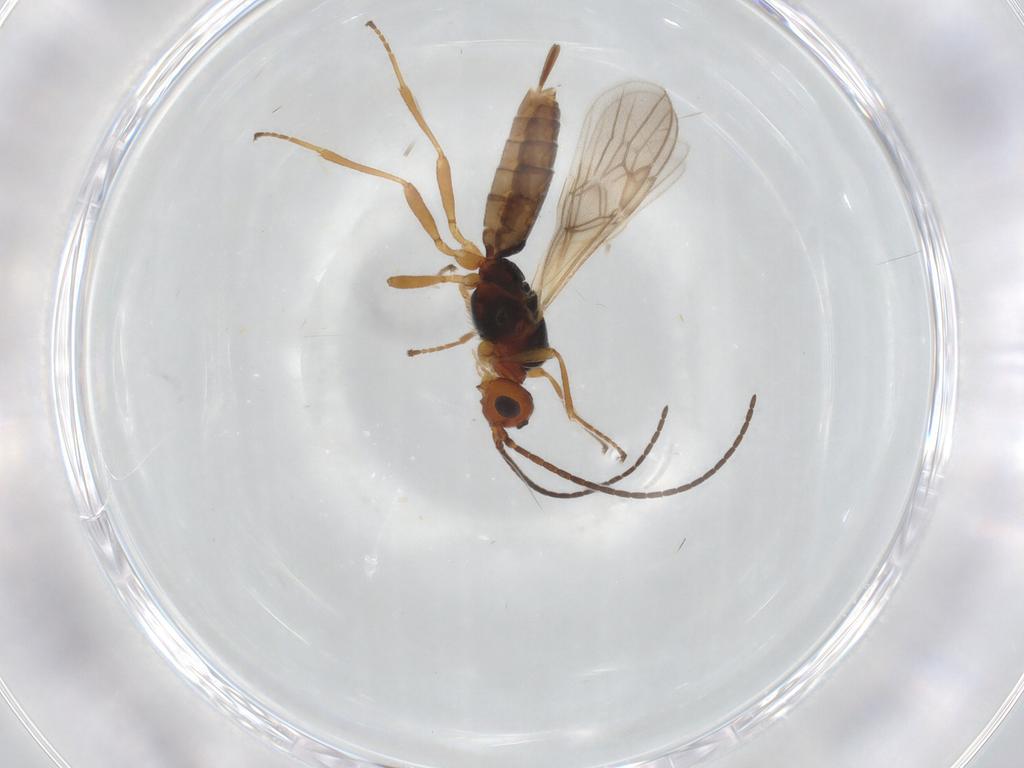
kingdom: Animalia
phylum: Arthropoda
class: Insecta
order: Hymenoptera
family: Braconidae
